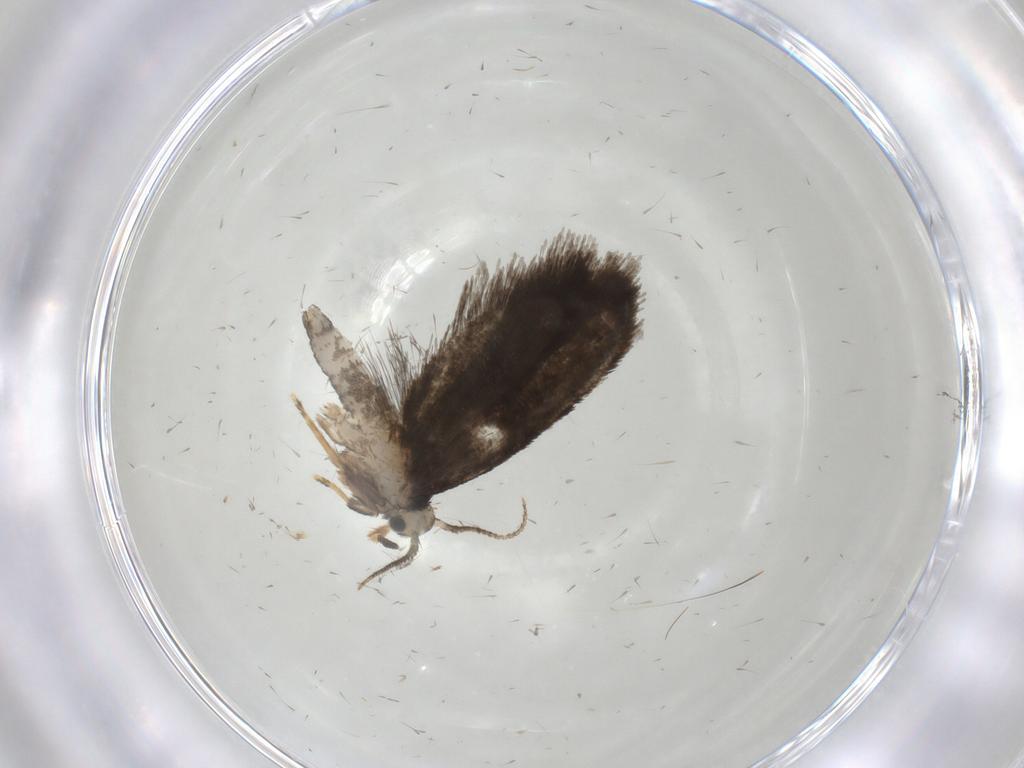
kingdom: Animalia
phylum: Arthropoda
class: Insecta
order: Lepidoptera
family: Psychidae
